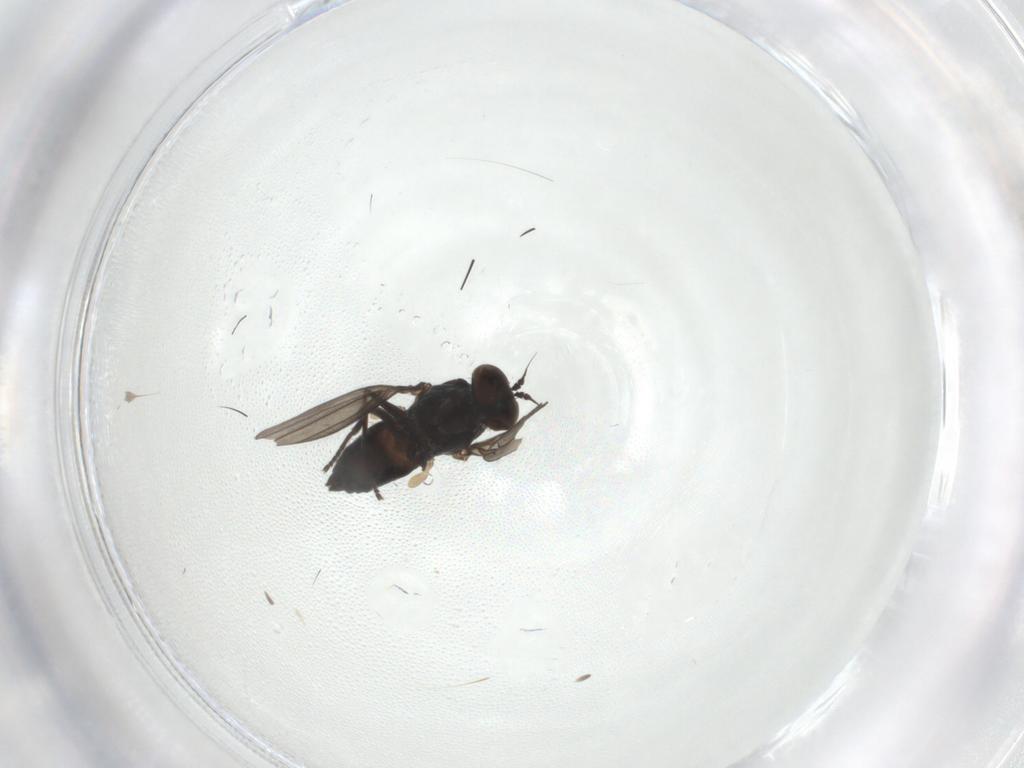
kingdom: Animalia
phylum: Arthropoda
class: Insecta
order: Diptera
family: Dolichopodidae
